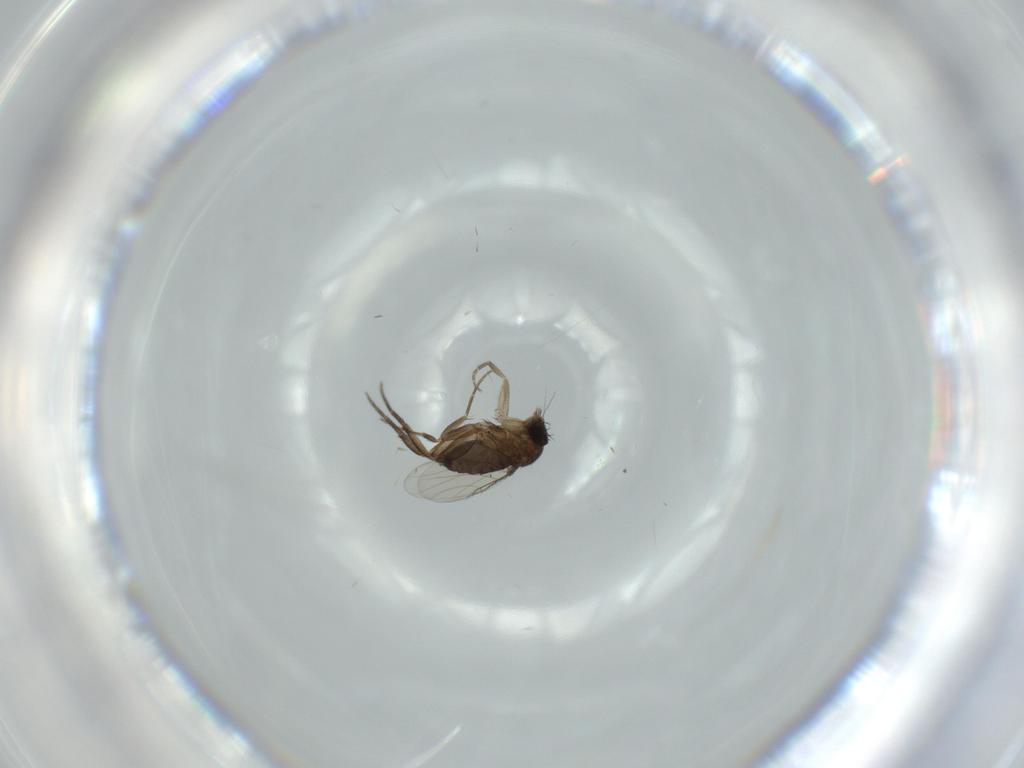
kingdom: Animalia
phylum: Arthropoda
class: Insecta
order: Diptera
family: Phoridae
